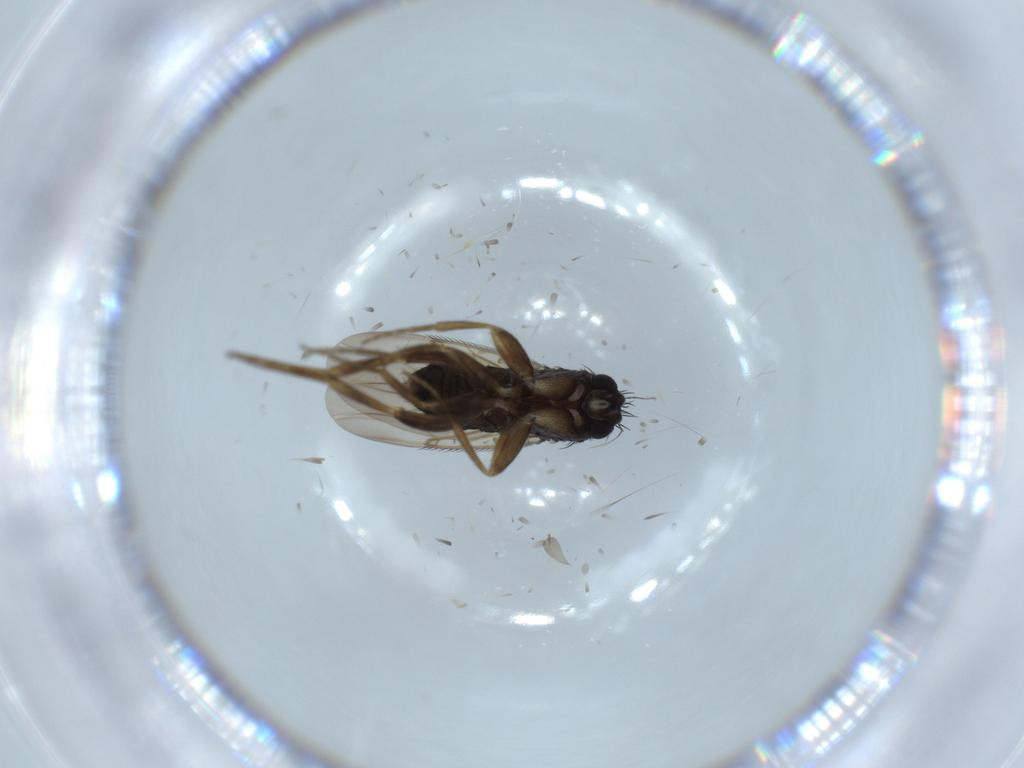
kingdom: Animalia
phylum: Arthropoda
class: Insecta
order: Diptera
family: Phoridae
